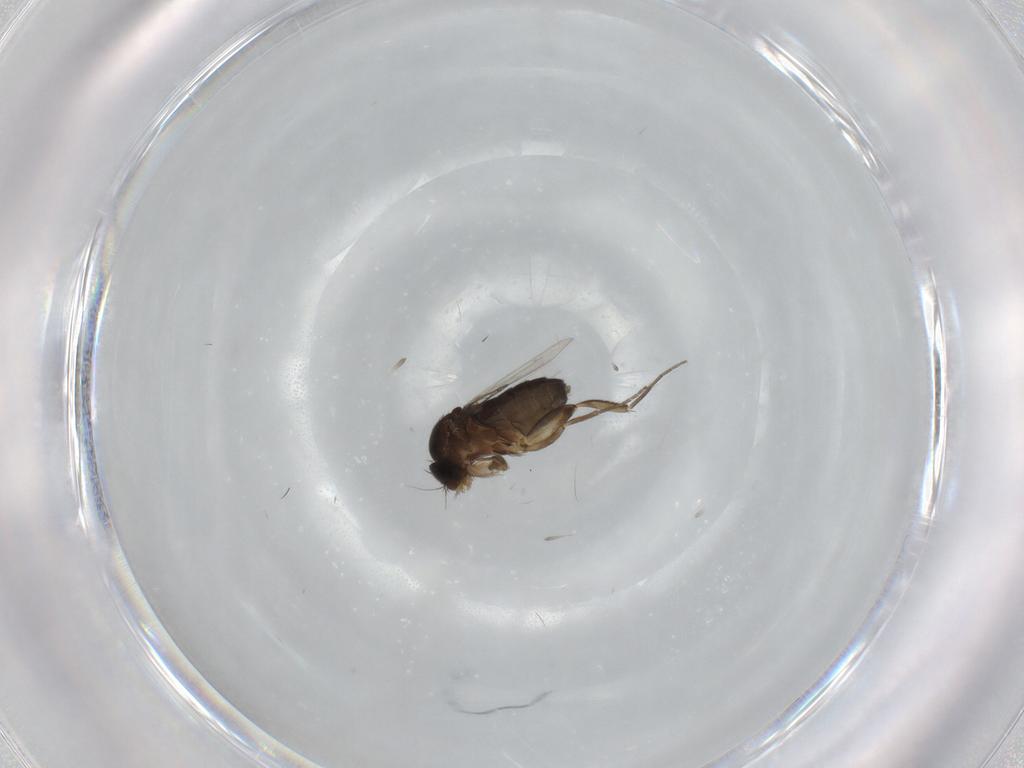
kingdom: Animalia
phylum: Arthropoda
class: Insecta
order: Diptera
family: Phoridae
